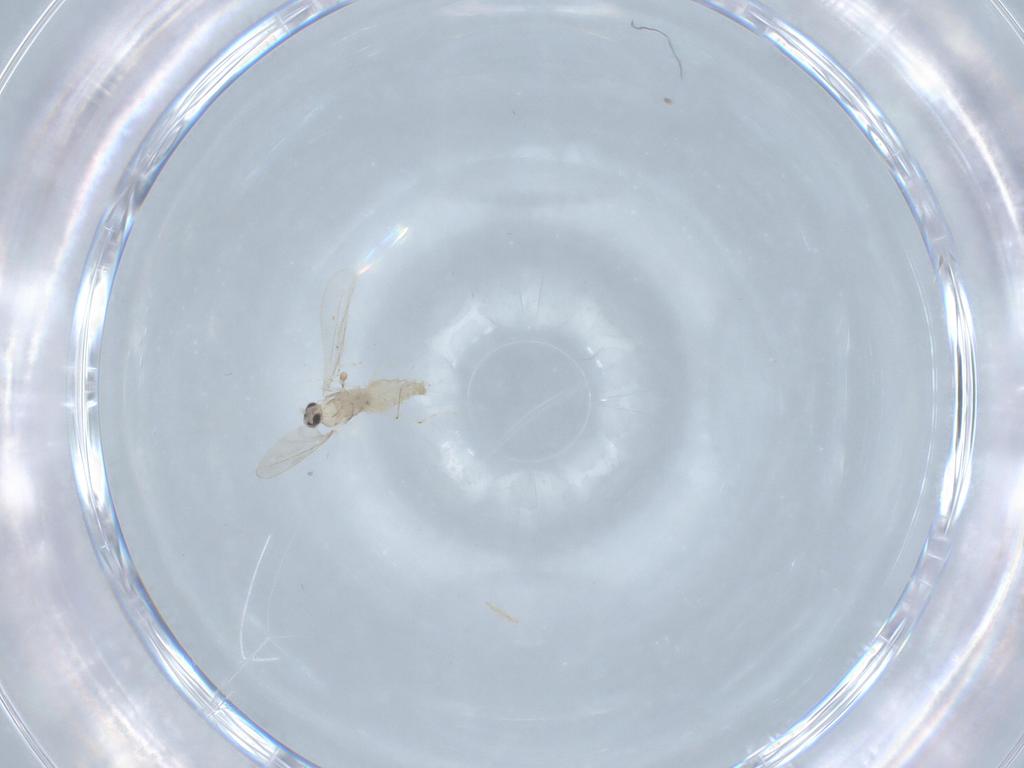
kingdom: Animalia
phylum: Arthropoda
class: Insecta
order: Diptera
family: Cecidomyiidae
